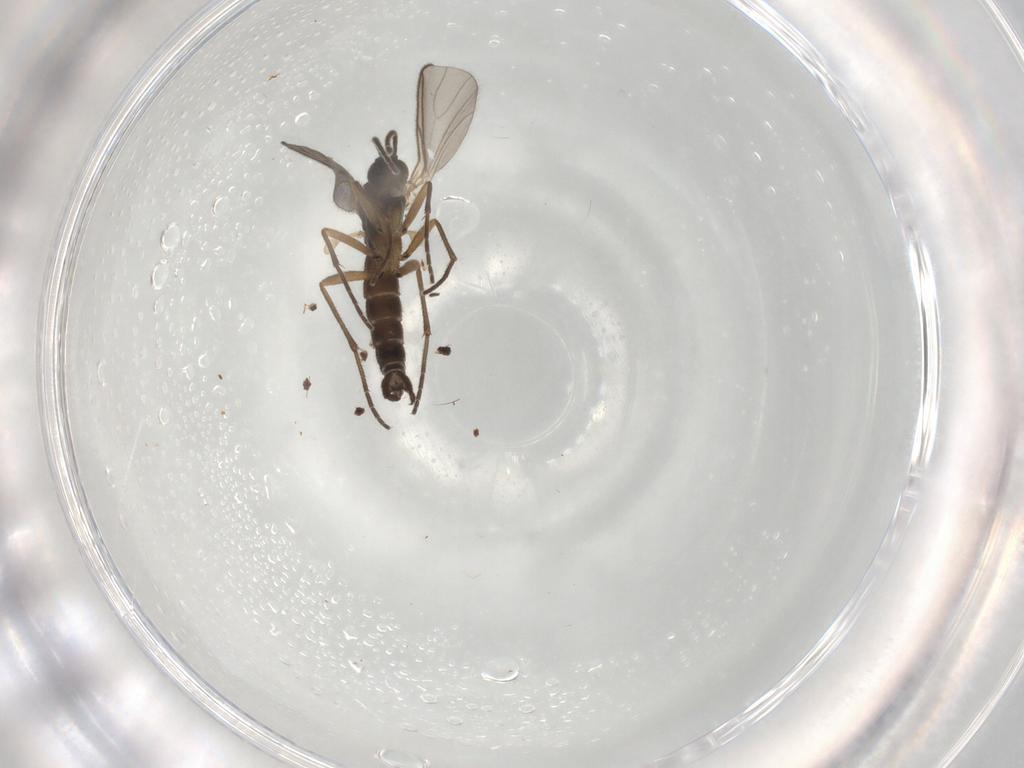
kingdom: Animalia
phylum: Arthropoda
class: Insecta
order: Diptera
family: Chironomidae
